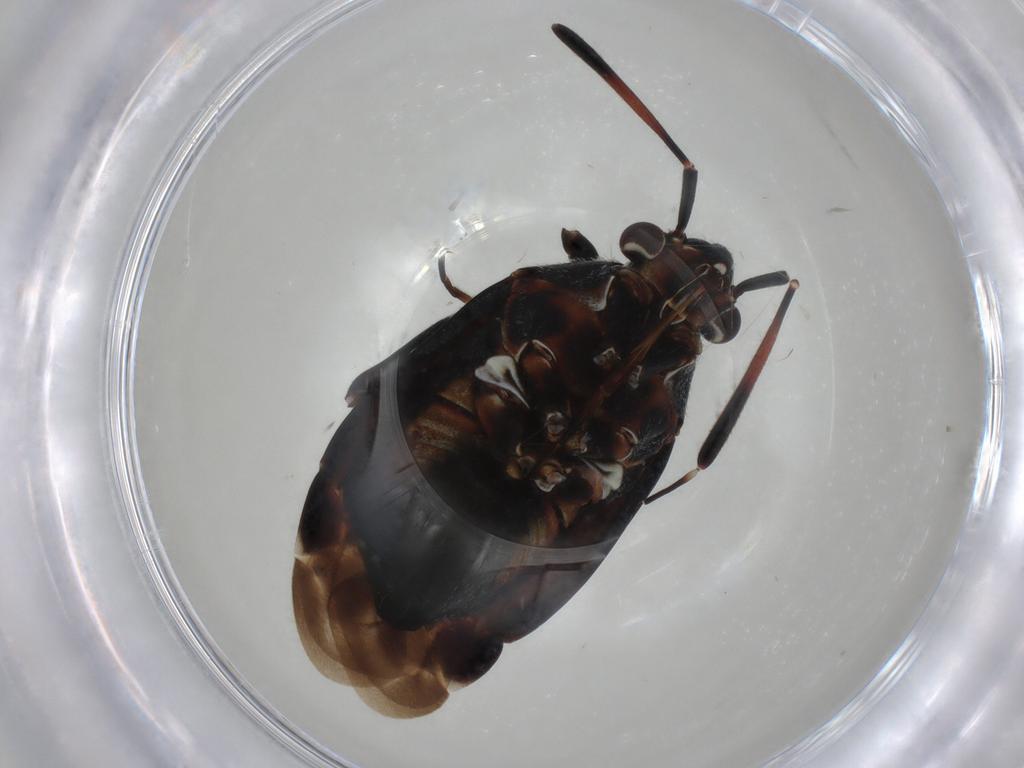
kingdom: Animalia
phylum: Arthropoda
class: Insecta
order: Hemiptera
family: Miridae
